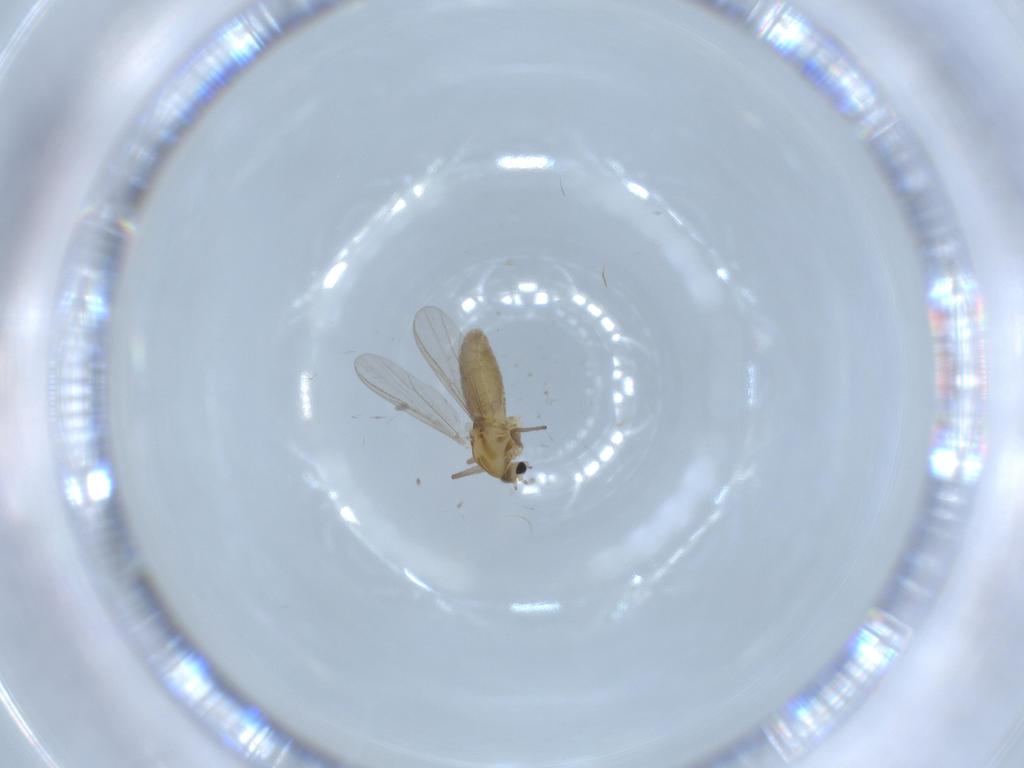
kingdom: Animalia
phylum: Arthropoda
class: Insecta
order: Diptera
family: Chironomidae
